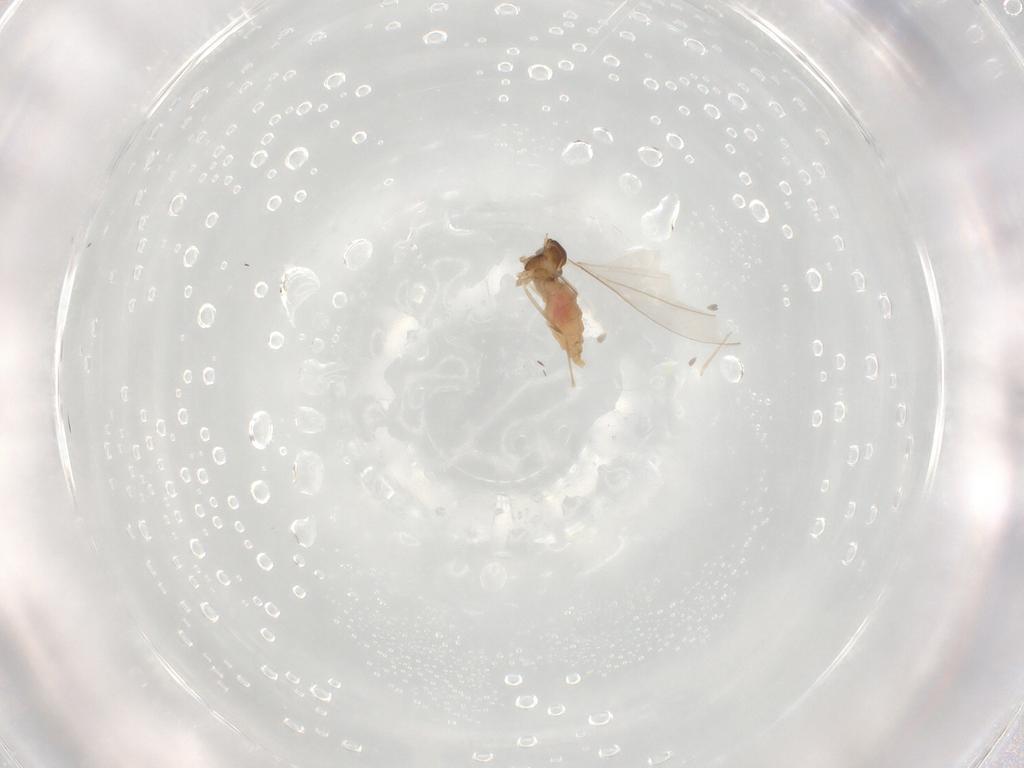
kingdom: Animalia
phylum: Arthropoda
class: Insecta
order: Diptera
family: Cecidomyiidae
